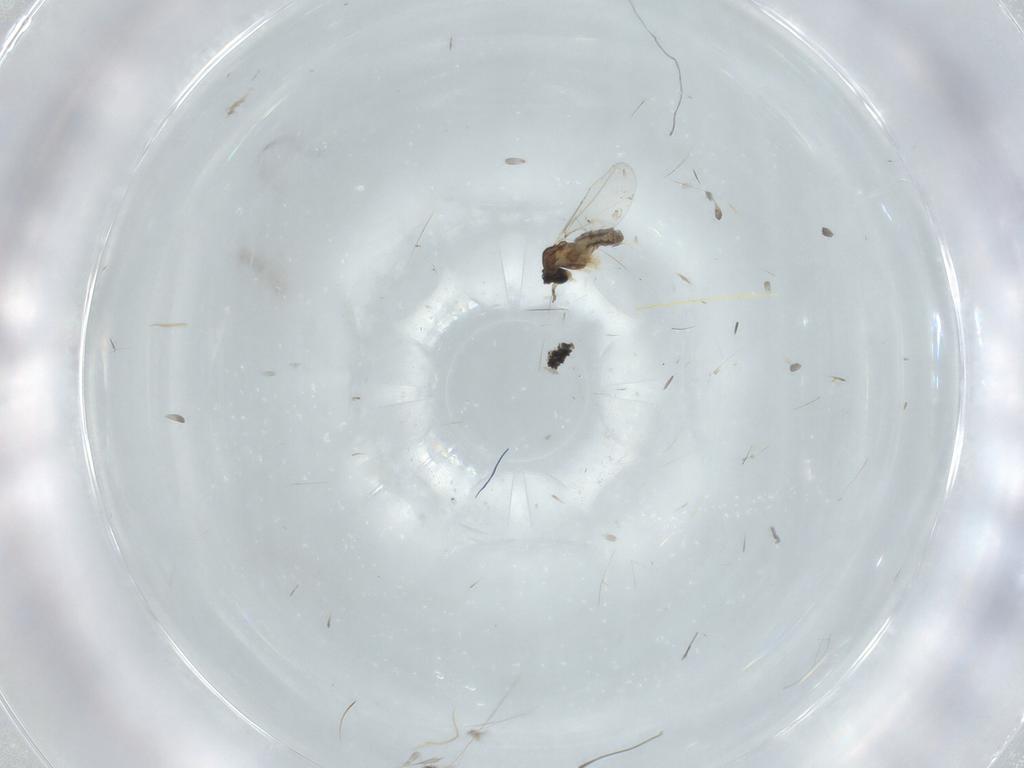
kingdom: Animalia
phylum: Arthropoda
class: Insecta
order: Diptera
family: Cecidomyiidae
